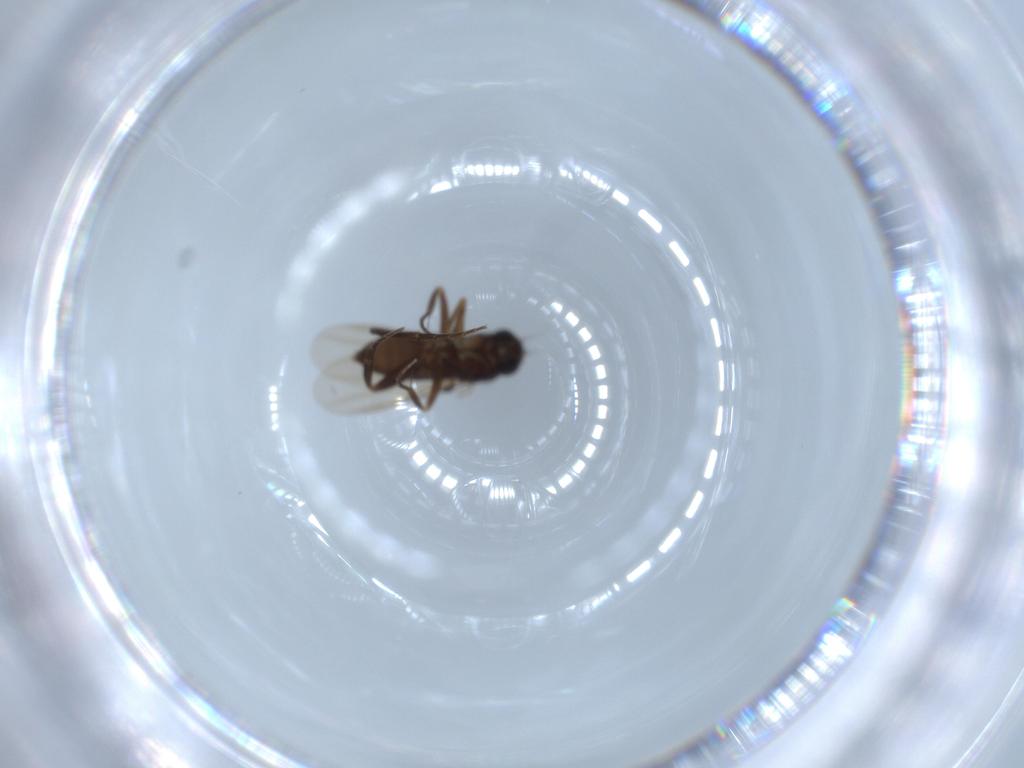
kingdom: Animalia
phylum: Arthropoda
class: Insecta
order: Diptera
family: Phoridae
